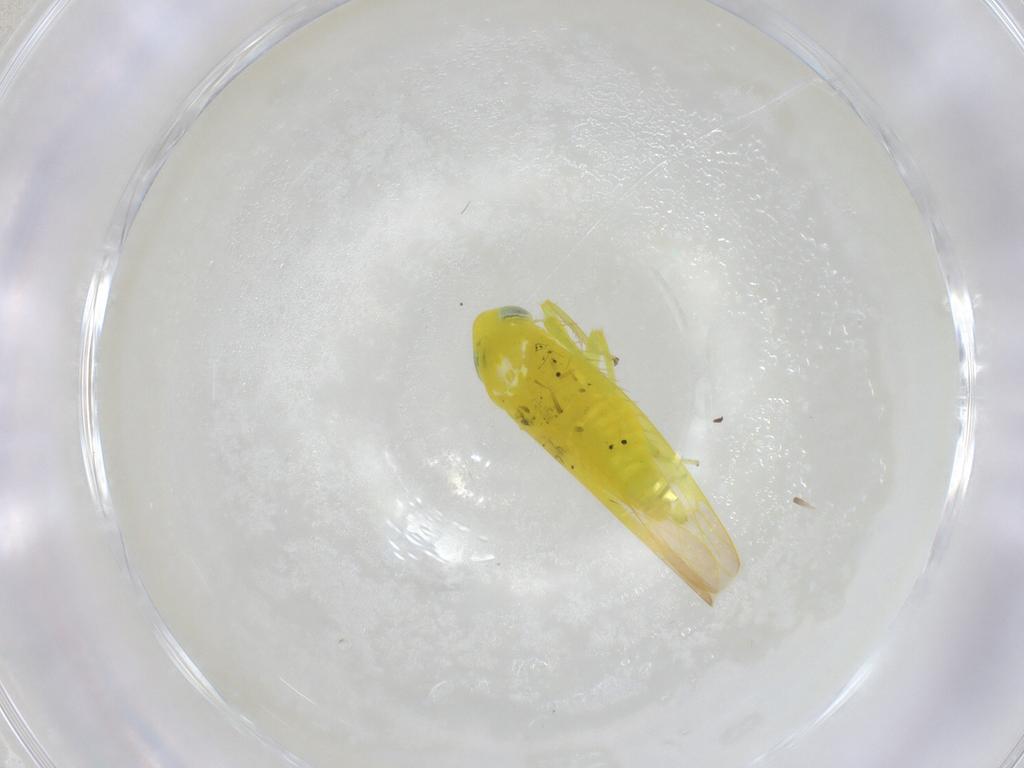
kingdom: Animalia
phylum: Arthropoda
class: Insecta
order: Hemiptera
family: Cicadellidae
